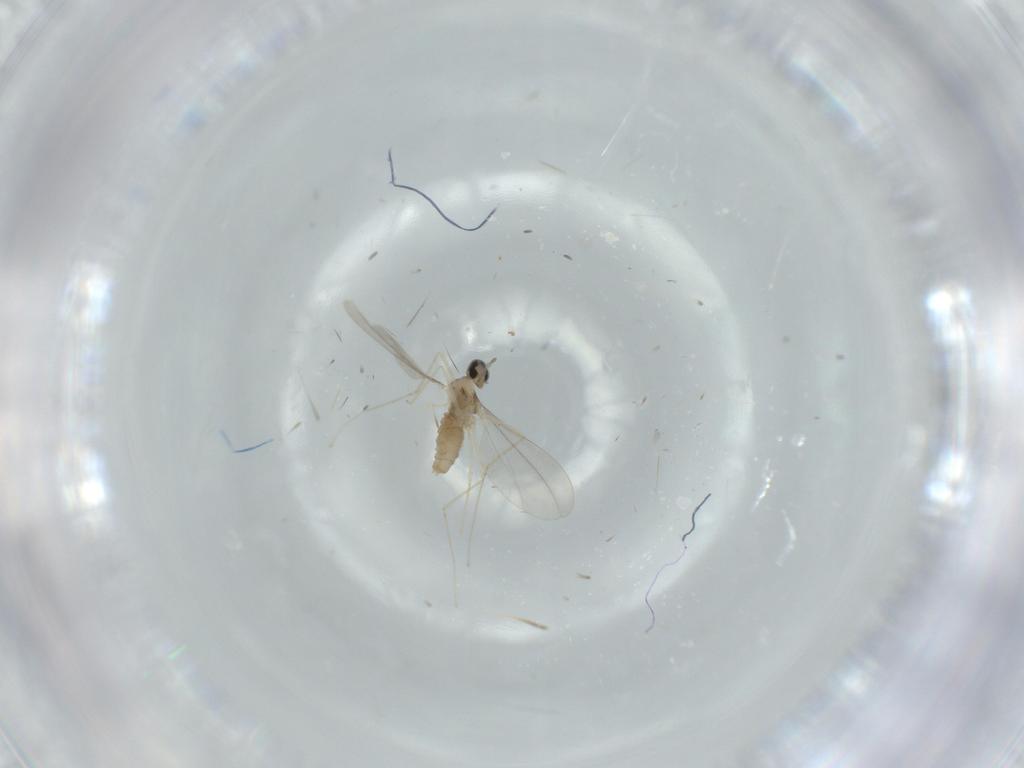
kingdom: Animalia
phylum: Arthropoda
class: Insecta
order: Diptera
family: Cecidomyiidae
